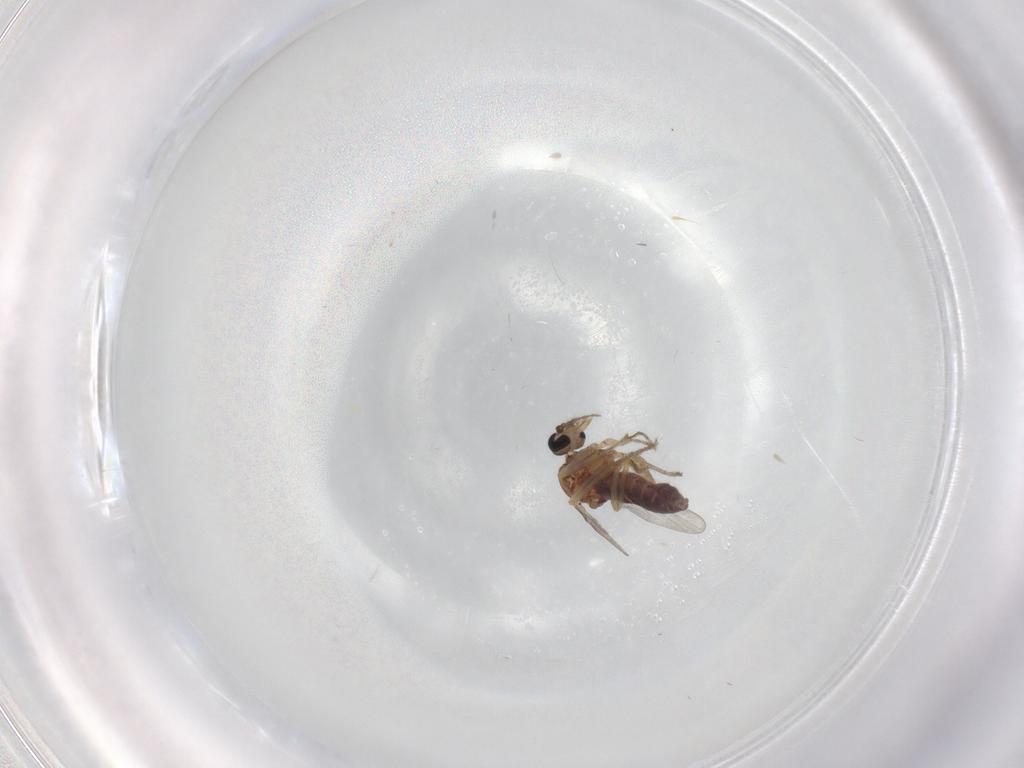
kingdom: Animalia
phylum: Arthropoda
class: Insecta
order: Diptera
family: Ceratopogonidae
